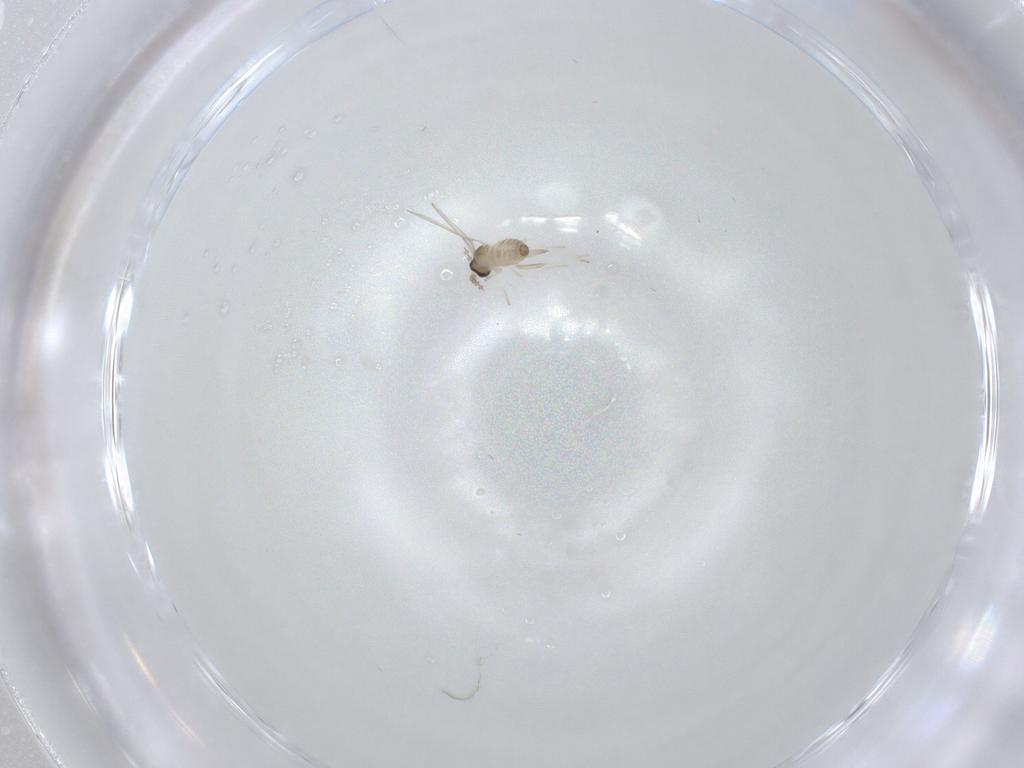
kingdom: Animalia
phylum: Arthropoda
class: Insecta
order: Diptera
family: Cecidomyiidae
